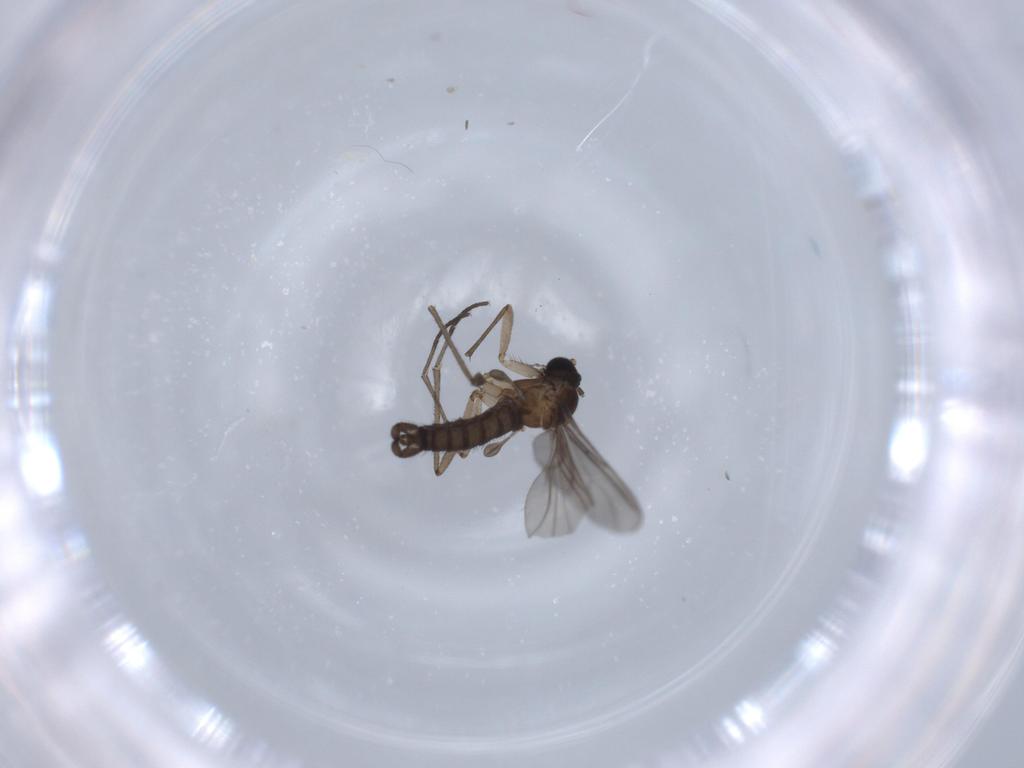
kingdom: Animalia
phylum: Arthropoda
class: Insecta
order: Diptera
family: Sciaridae
